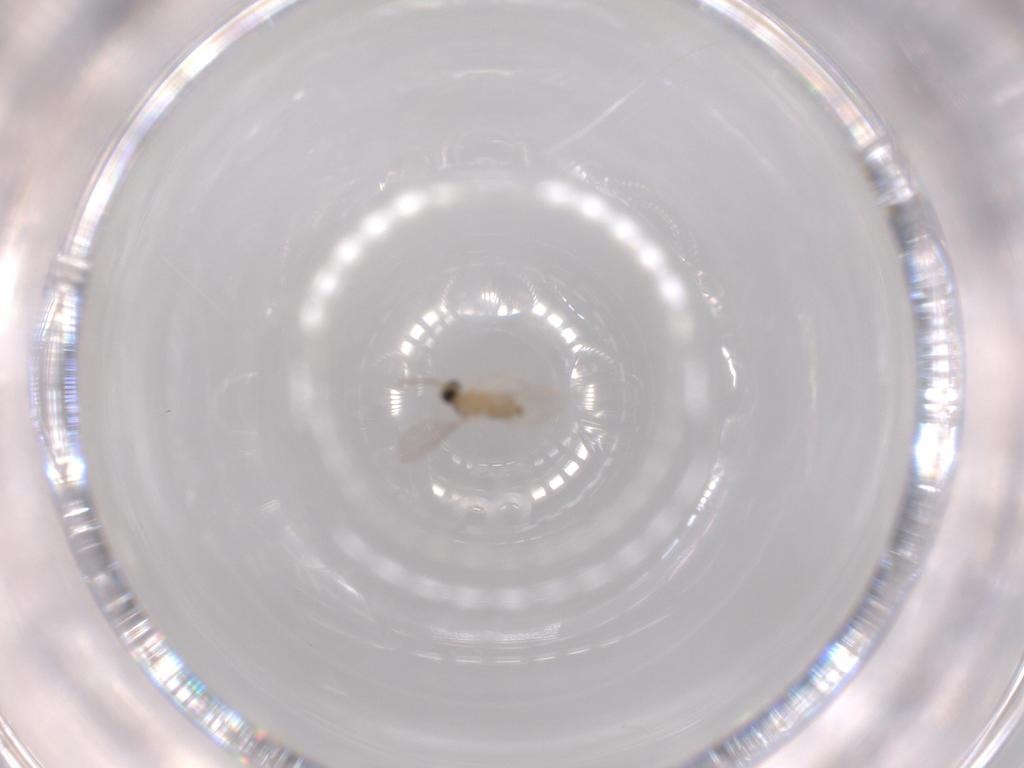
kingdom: Animalia
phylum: Arthropoda
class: Insecta
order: Diptera
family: Cecidomyiidae
